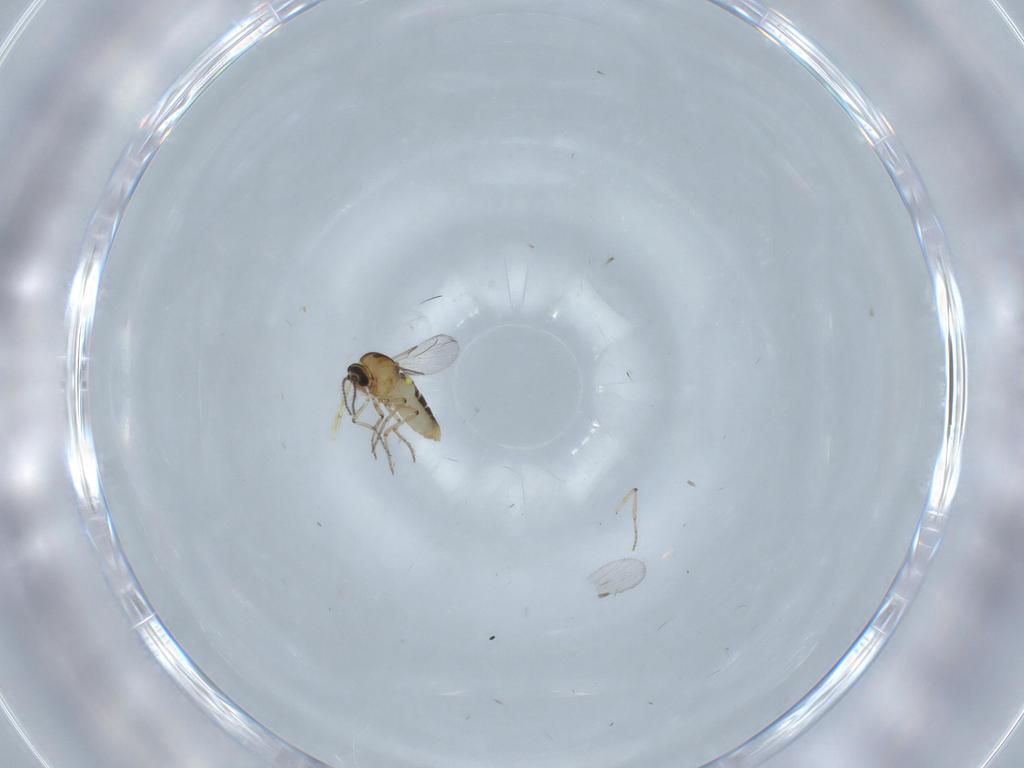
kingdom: Animalia
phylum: Arthropoda
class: Insecta
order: Diptera
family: Ceratopogonidae
